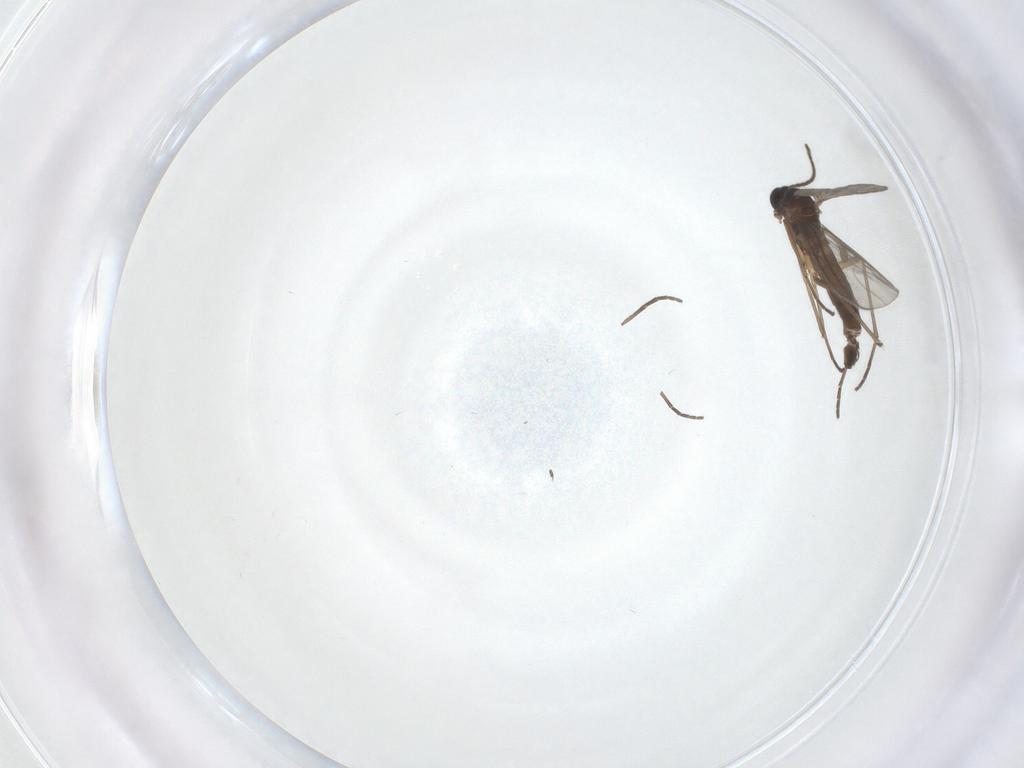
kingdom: Animalia
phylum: Arthropoda
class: Insecta
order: Diptera
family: Sciaridae
